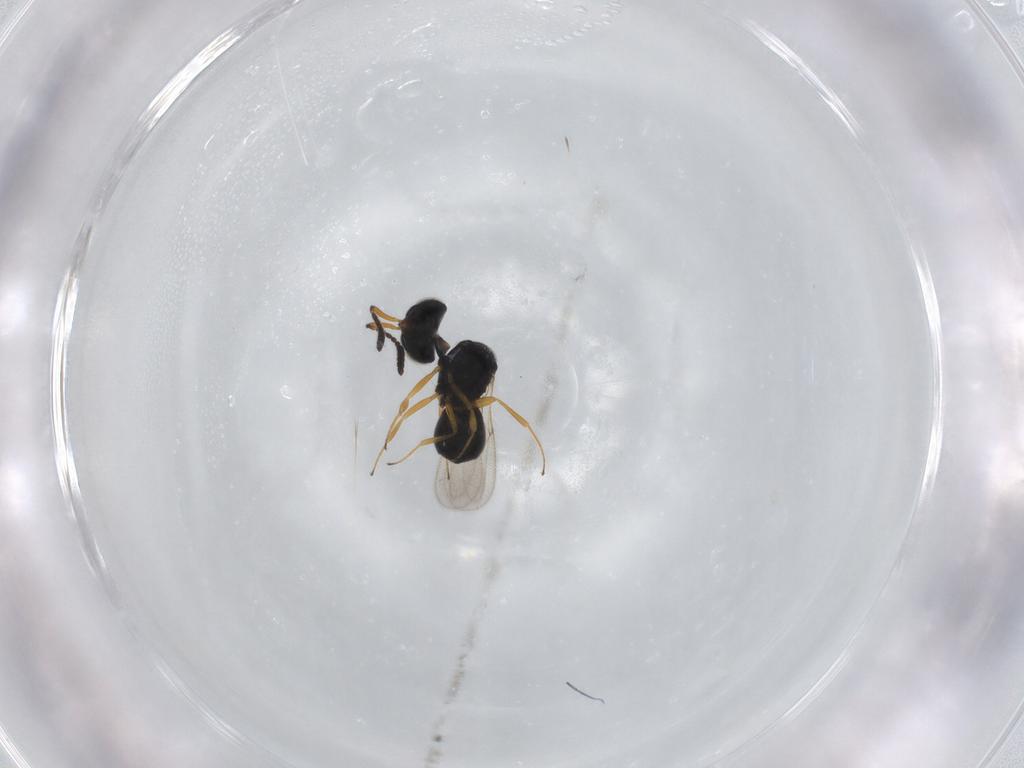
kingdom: Animalia
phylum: Arthropoda
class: Insecta
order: Hymenoptera
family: Scelionidae
